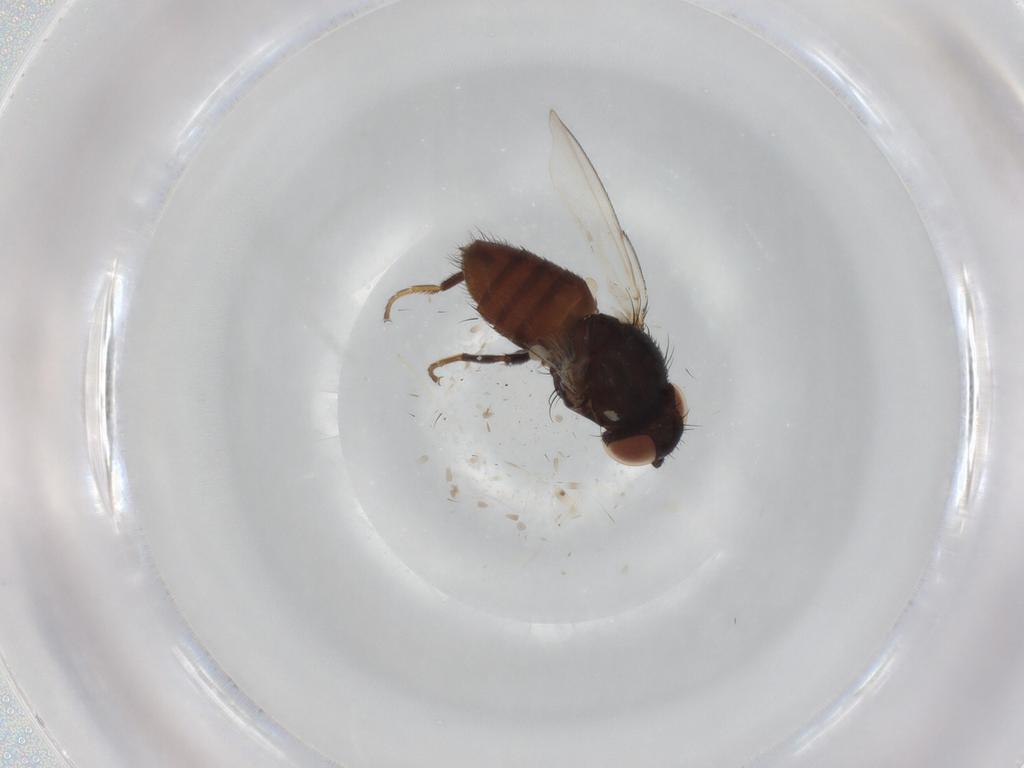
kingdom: Animalia
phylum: Arthropoda
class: Insecta
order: Diptera
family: Milichiidae
